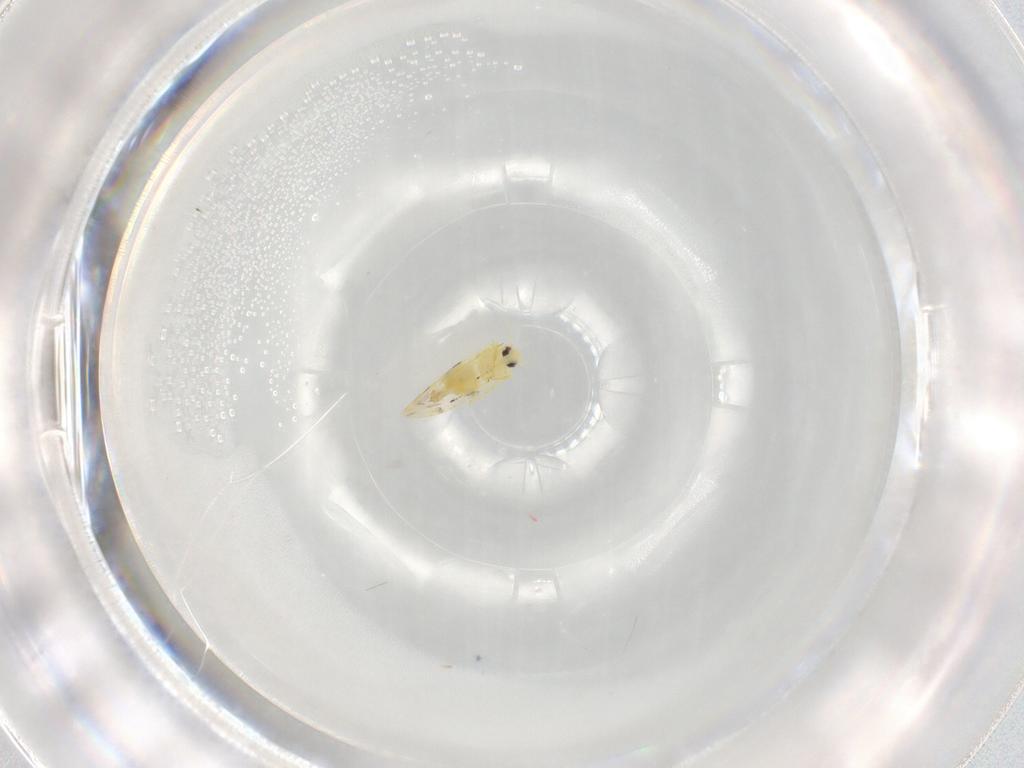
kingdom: Animalia
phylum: Arthropoda
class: Insecta
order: Hemiptera
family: Aleyrodidae
